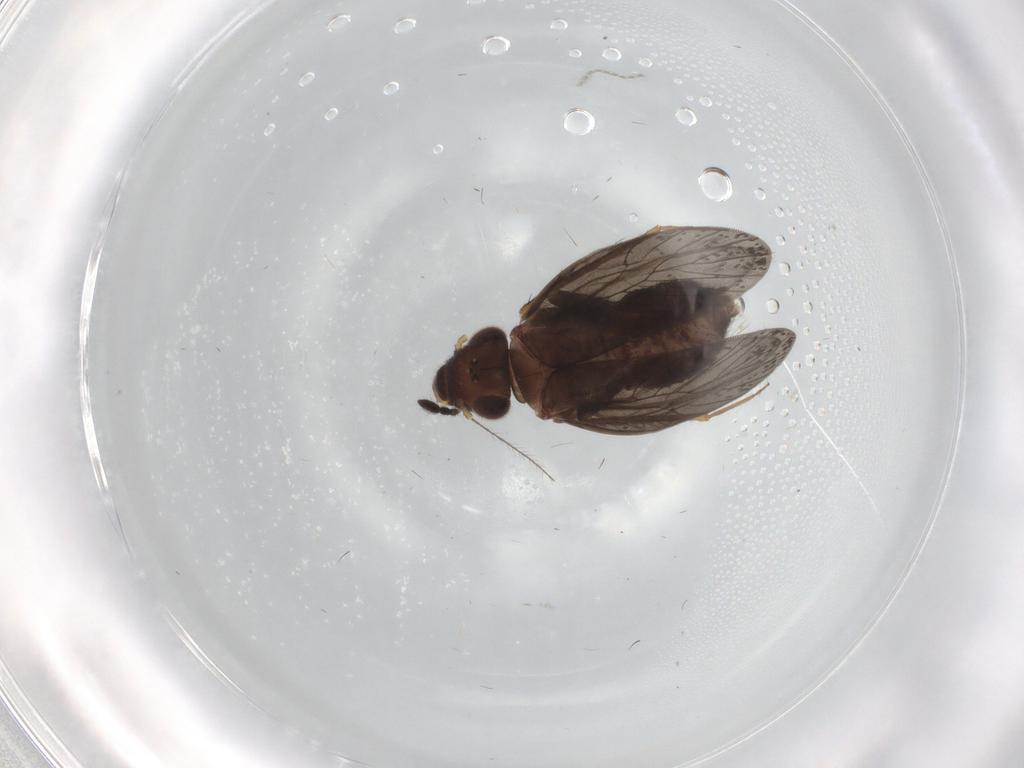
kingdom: Animalia
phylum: Arthropoda
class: Insecta
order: Psocodea
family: Lepidopsocidae
